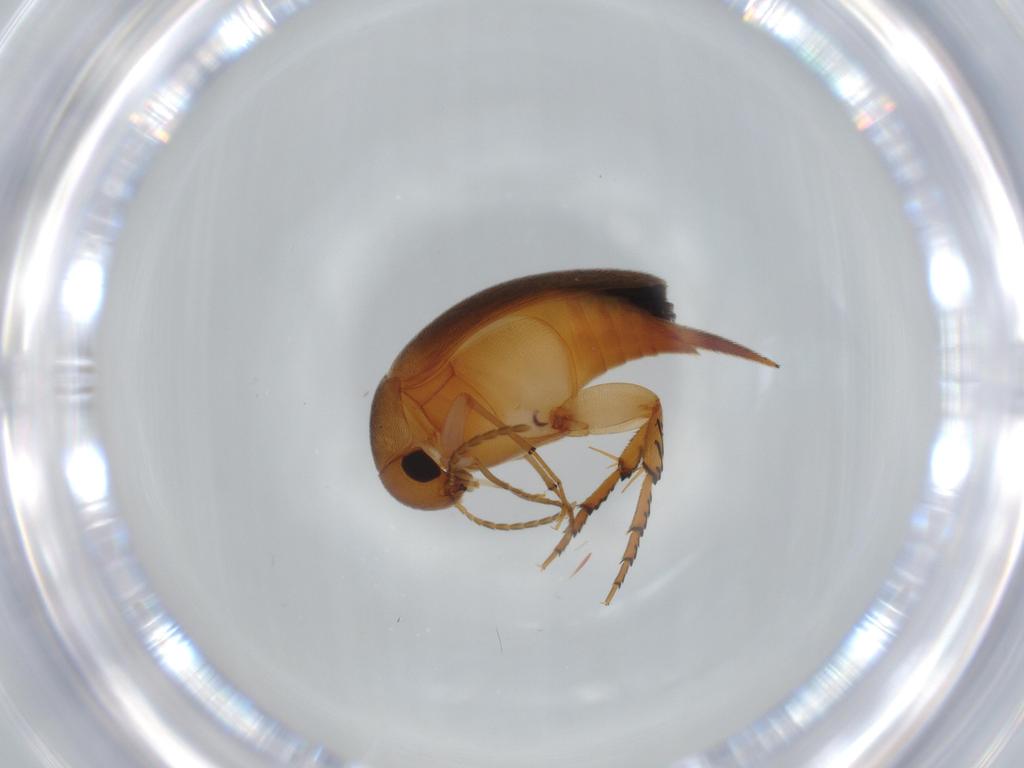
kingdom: Animalia
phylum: Arthropoda
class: Insecta
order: Coleoptera
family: Mordellidae
